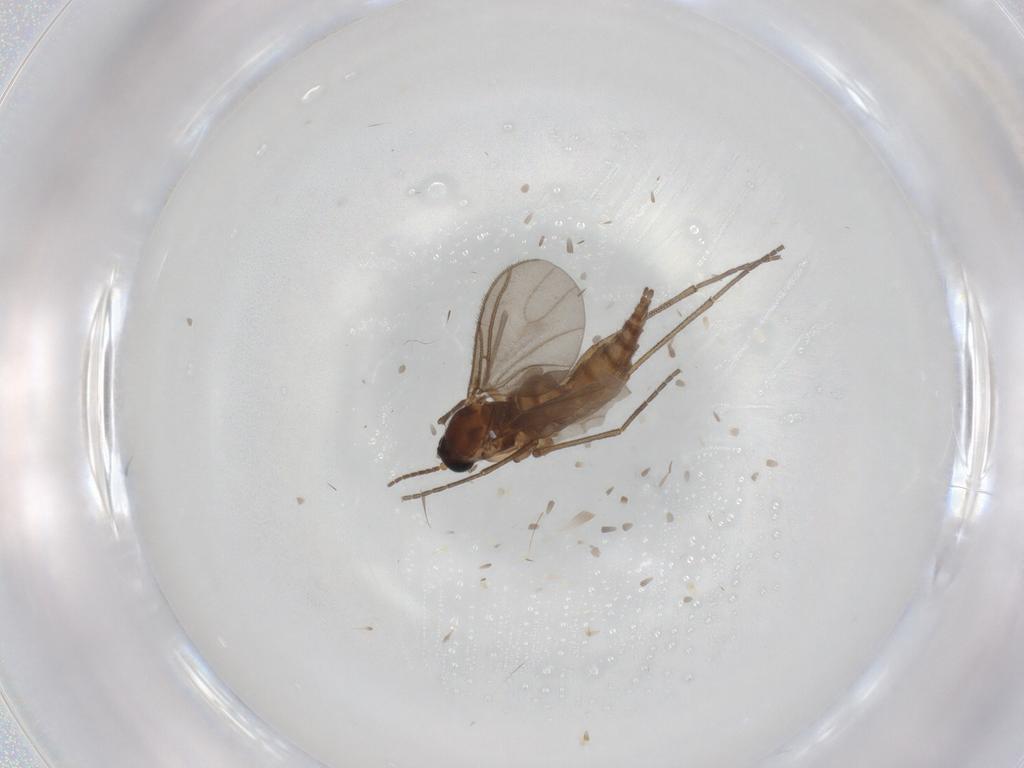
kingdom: Animalia
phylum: Arthropoda
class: Insecta
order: Diptera
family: Sciaridae
